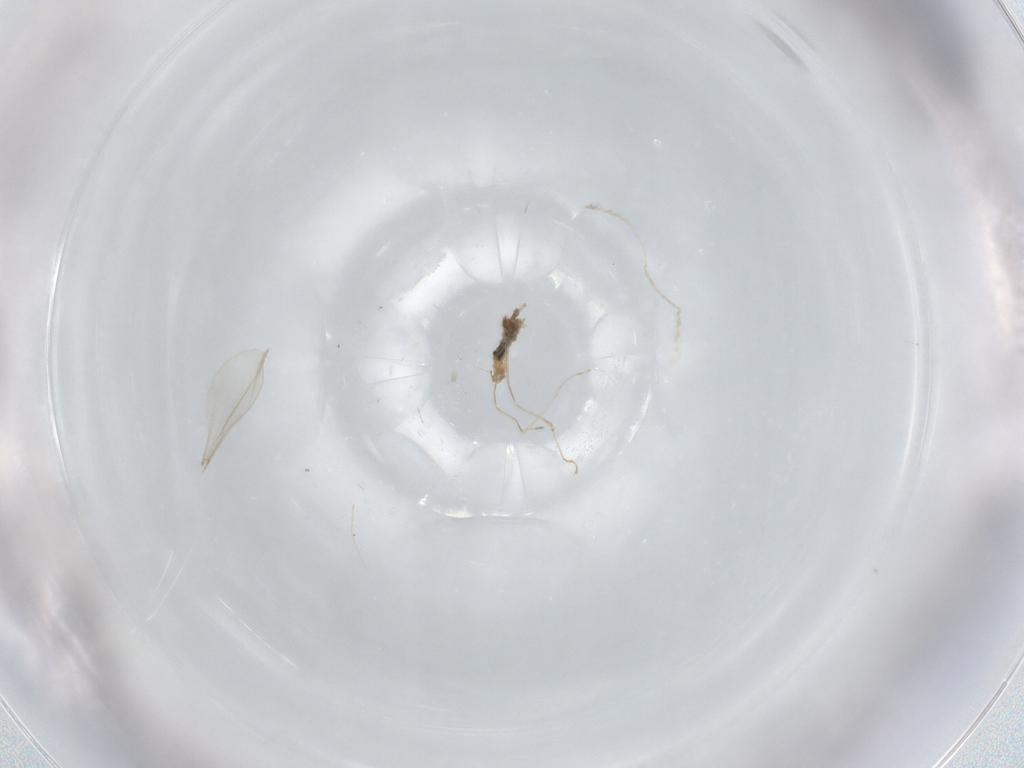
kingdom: Animalia
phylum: Arthropoda
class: Insecta
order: Diptera
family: Cecidomyiidae
